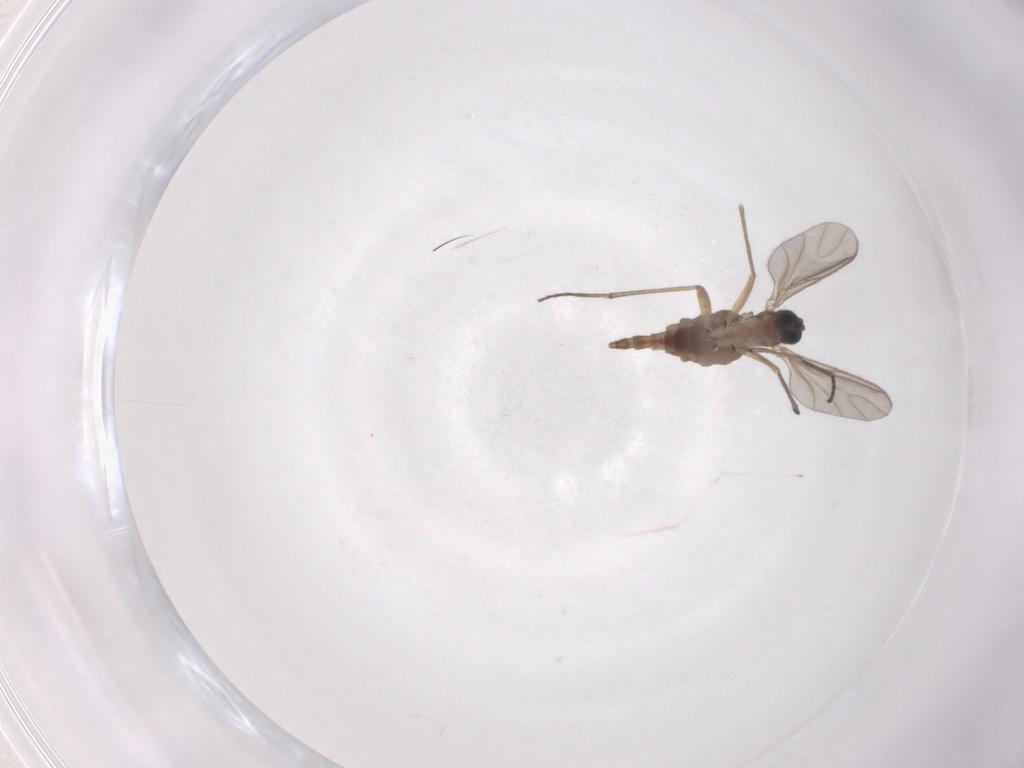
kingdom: Animalia
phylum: Arthropoda
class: Insecta
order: Diptera
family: Sciaridae
